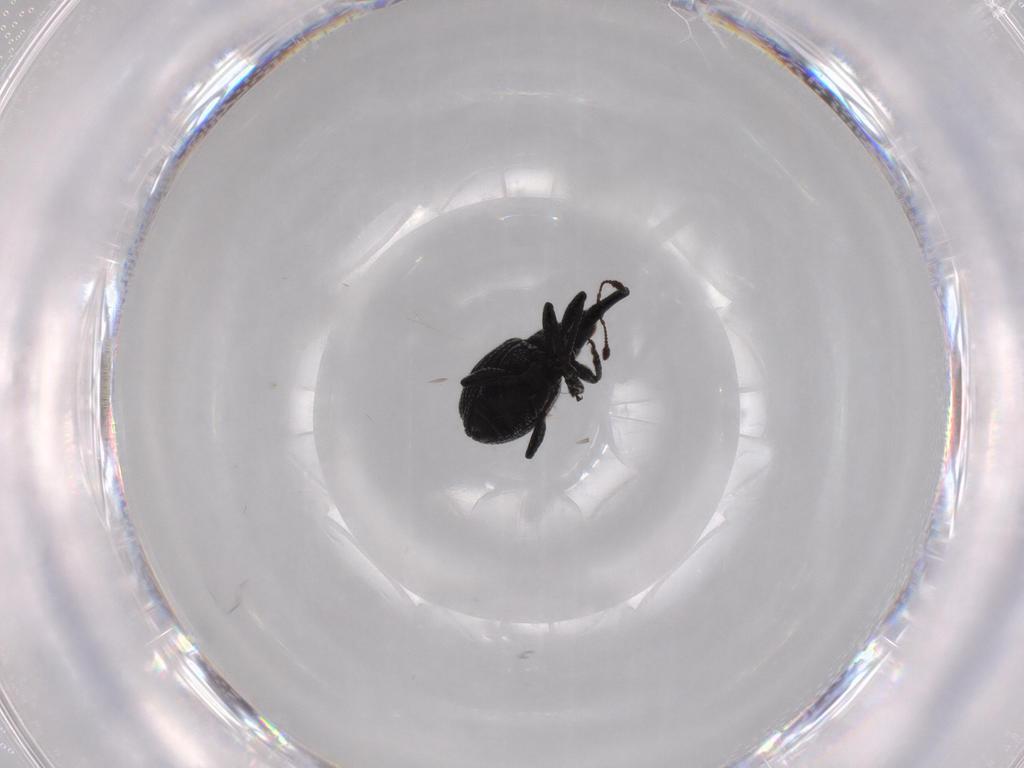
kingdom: Animalia
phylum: Arthropoda
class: Insecta
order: Coleoptera
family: Brentidae
